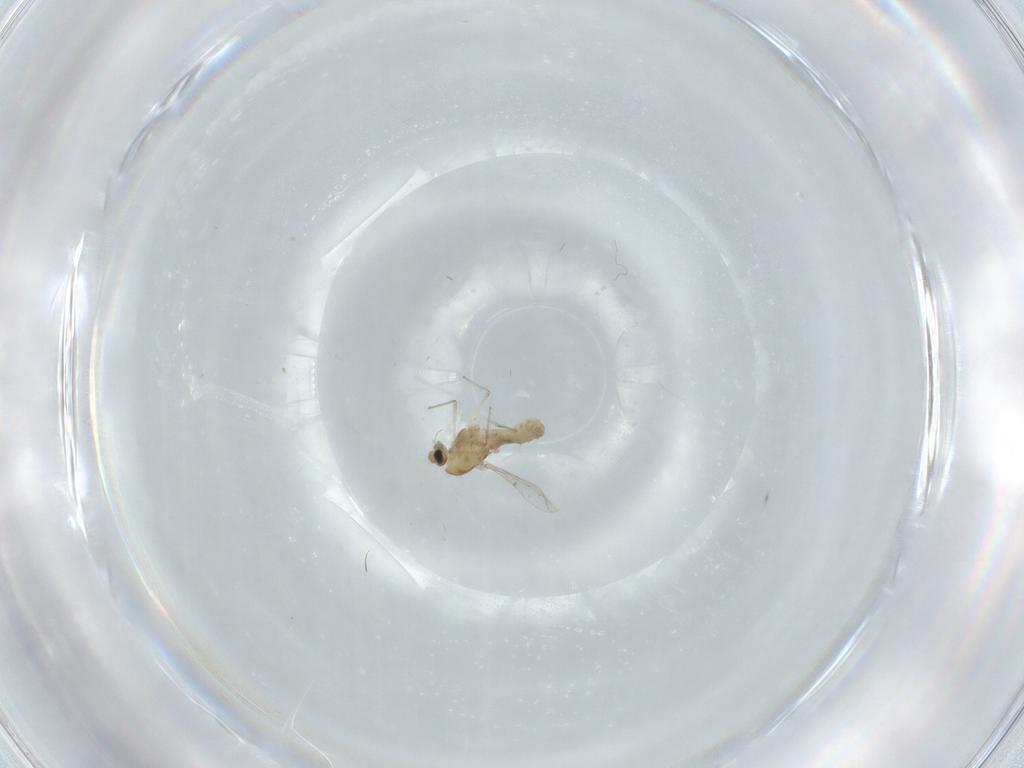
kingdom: Animalia
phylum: Arthropoda
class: Insecta
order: Diptera
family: Chironomidae
